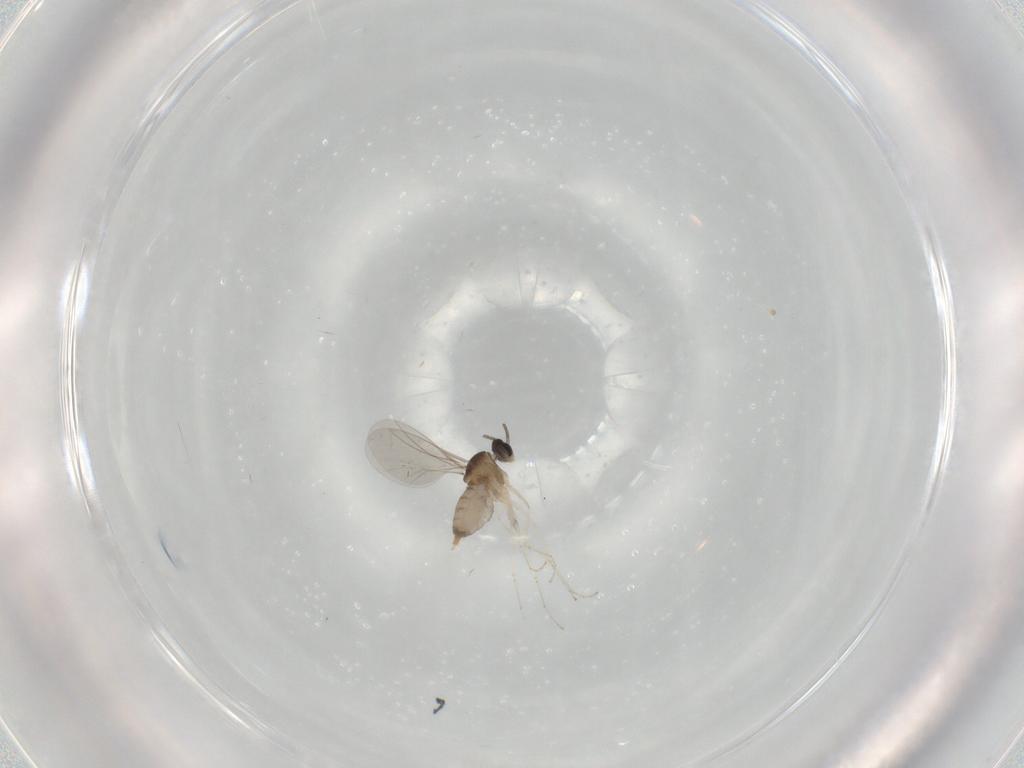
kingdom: Animalia
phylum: Arthropoda
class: Insecta
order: Diptera
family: Cecidomyiidae
